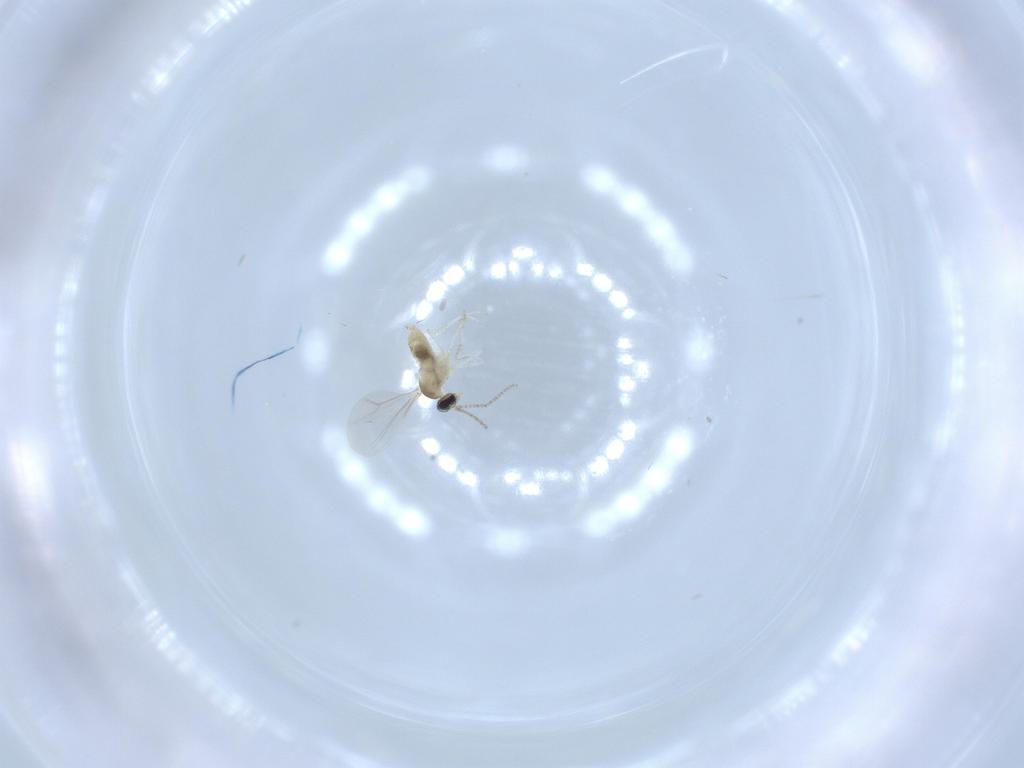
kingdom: Animalia
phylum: Arthropoda
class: Insecta
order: Diptera
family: Cecidomyiidae
